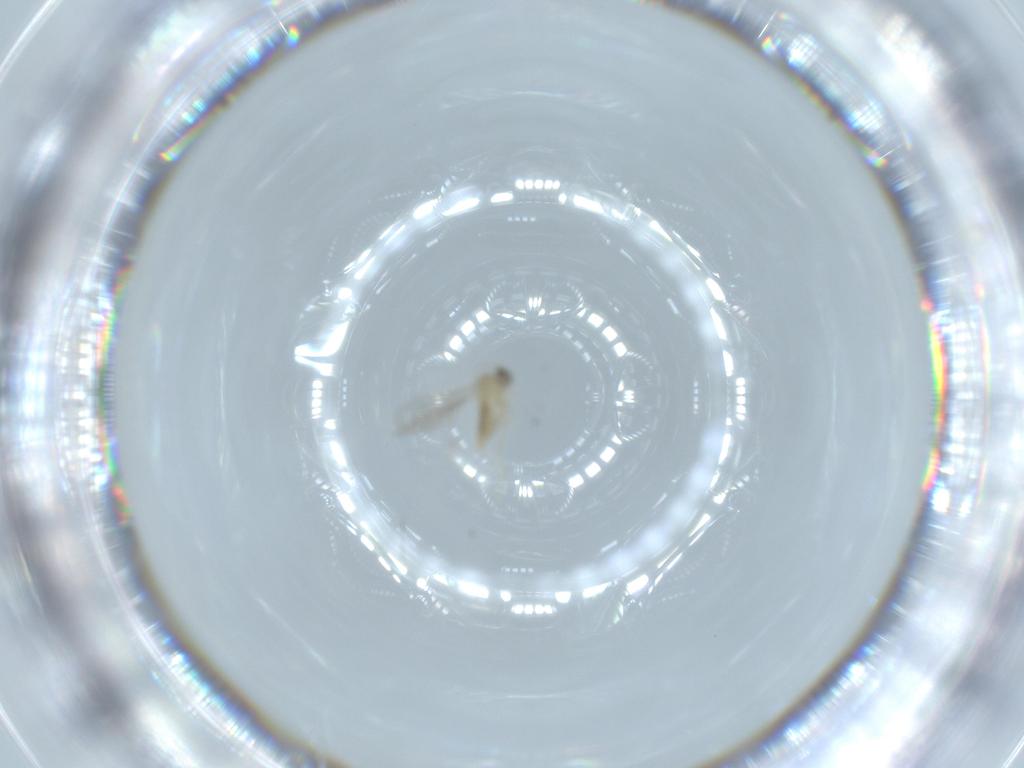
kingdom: Animalia
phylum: Arthropoda
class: Insecta
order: Diptera
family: Cecidomyiidae
